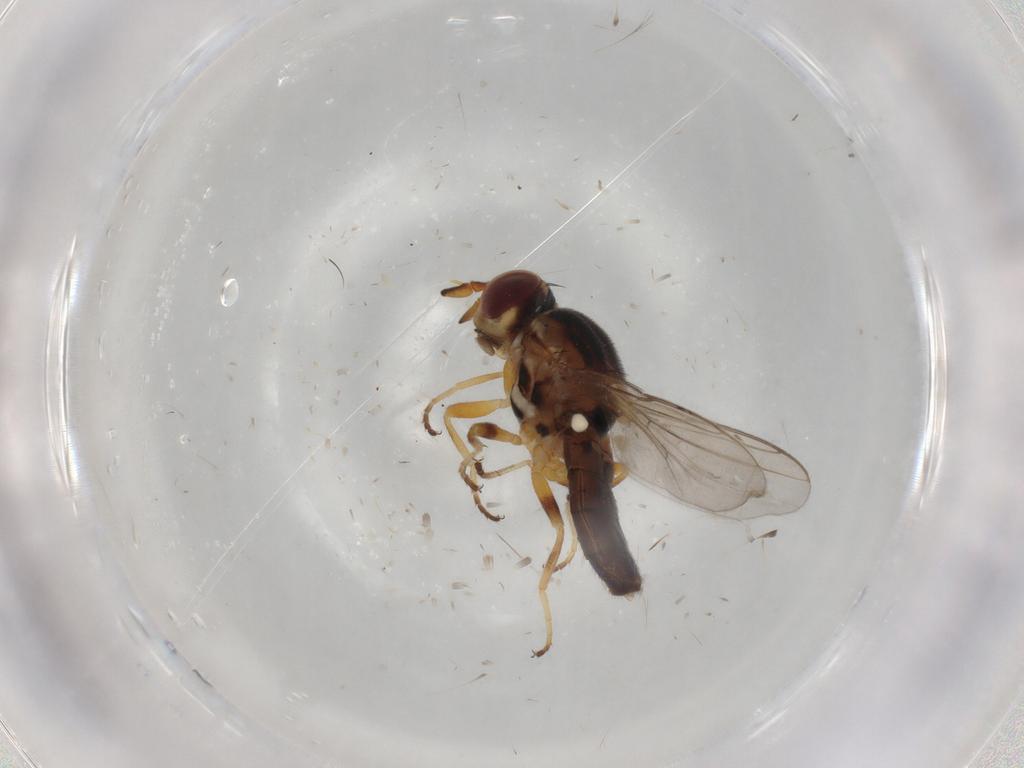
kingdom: Animalia
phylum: Arthropoda
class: Insecta
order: Diptera
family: Chloropidae
